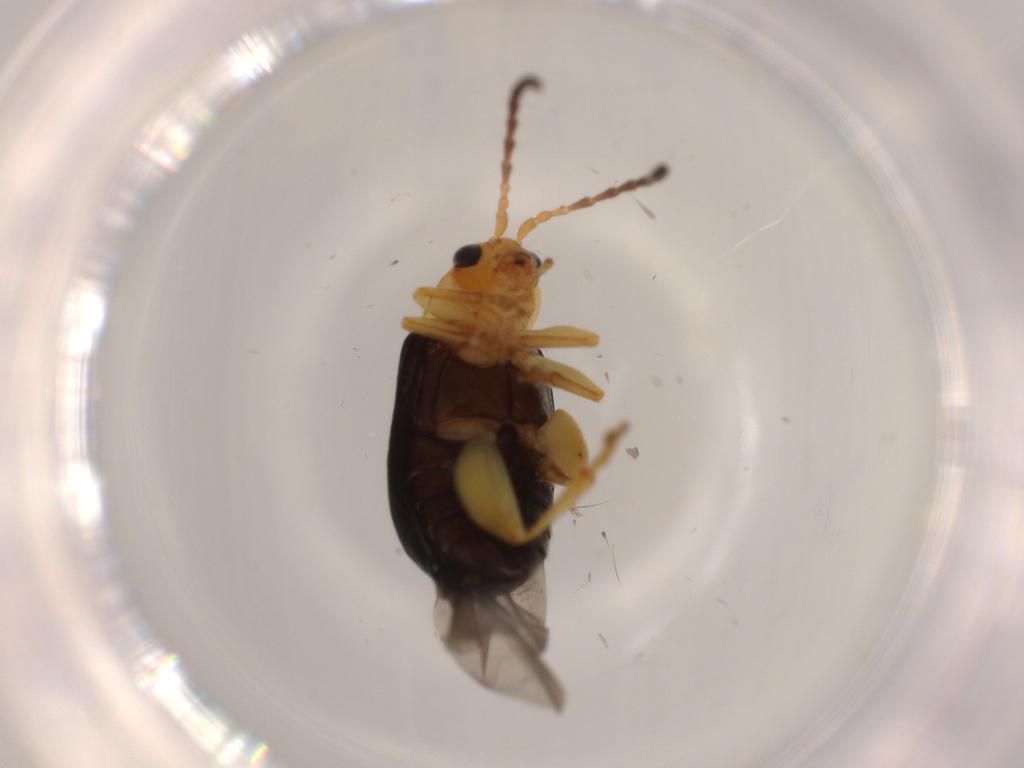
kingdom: Animalia
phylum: Arthropoda
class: Insecta
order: Coleoptera
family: Chrysomelidae
